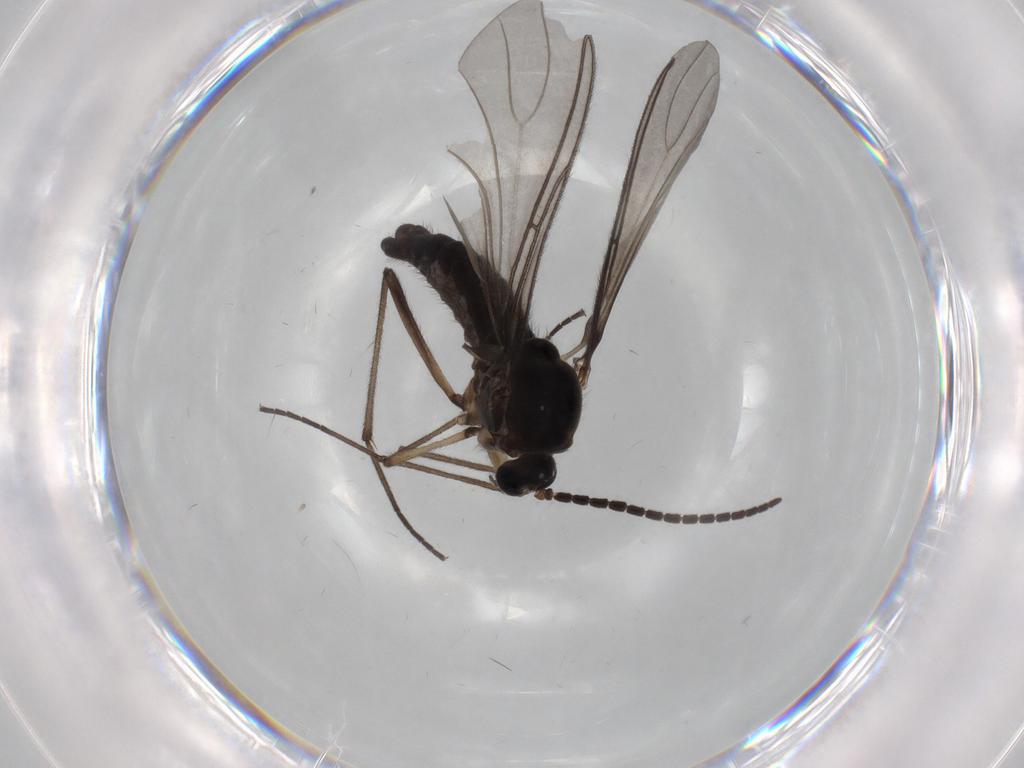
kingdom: Animalia
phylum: Arthropoda
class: Insecta
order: Diptera
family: Sciaridae
